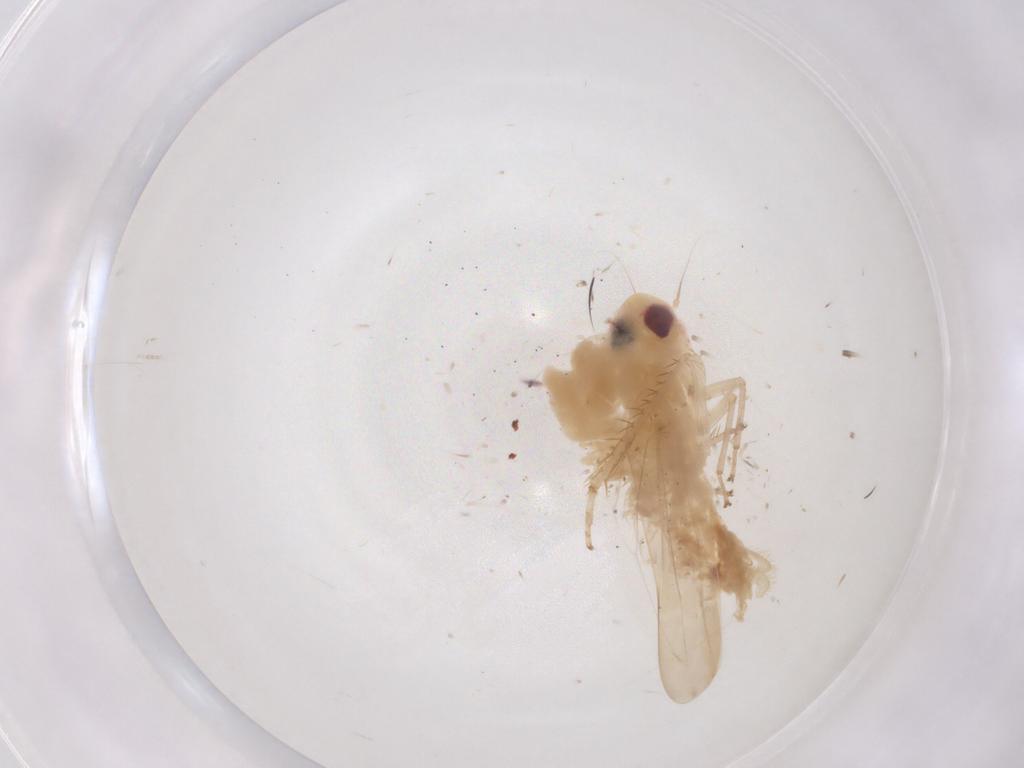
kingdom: Animalia
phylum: Arthropoda
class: Insecta
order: Hemiptera
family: Cicadellidae
